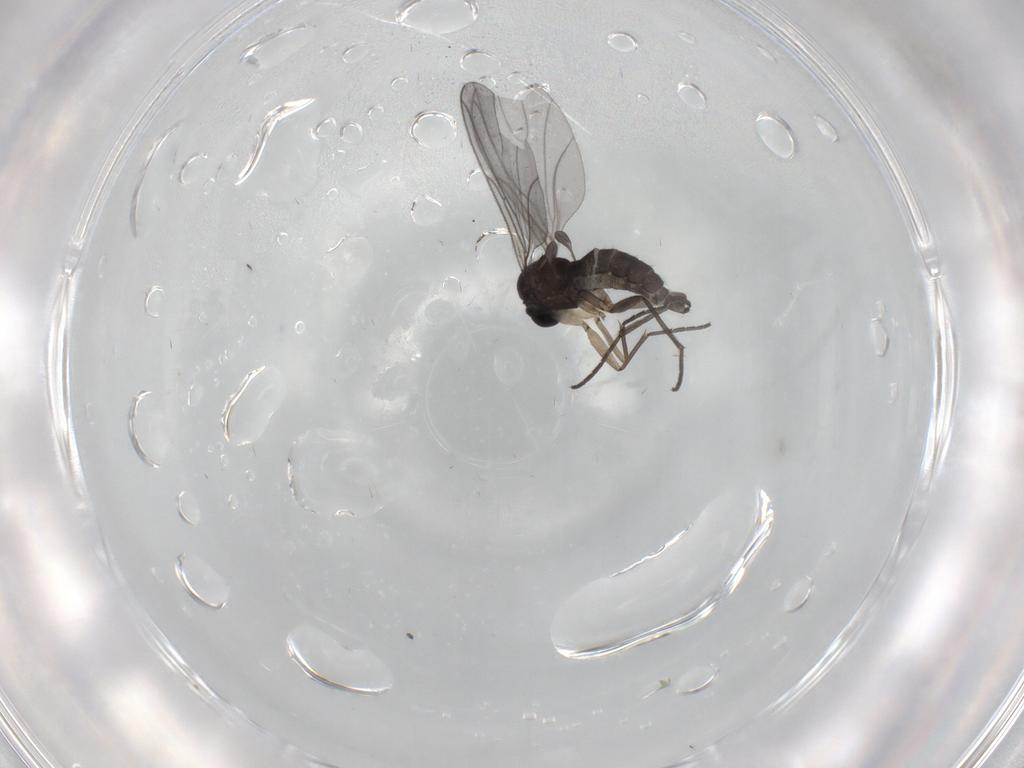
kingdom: Animalia
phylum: Arthropoda
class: Insecta
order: Diptera
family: Sciaridae
